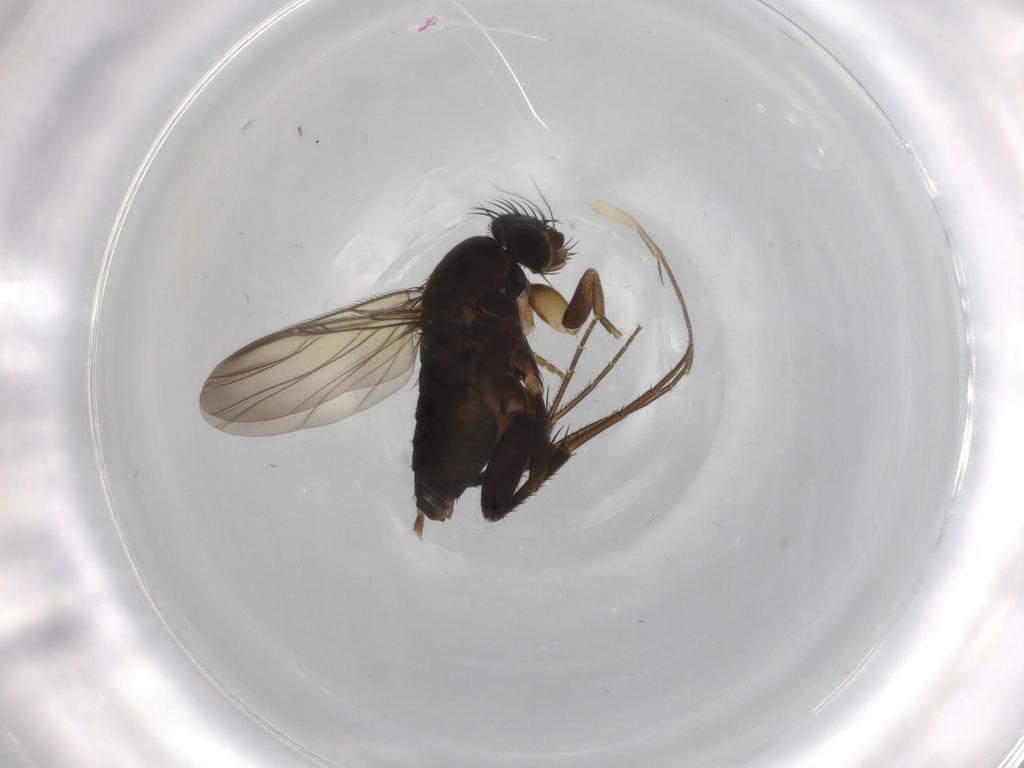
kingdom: Animalia
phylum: Arthropoda
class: Insecta
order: Diptera
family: Phoridae
